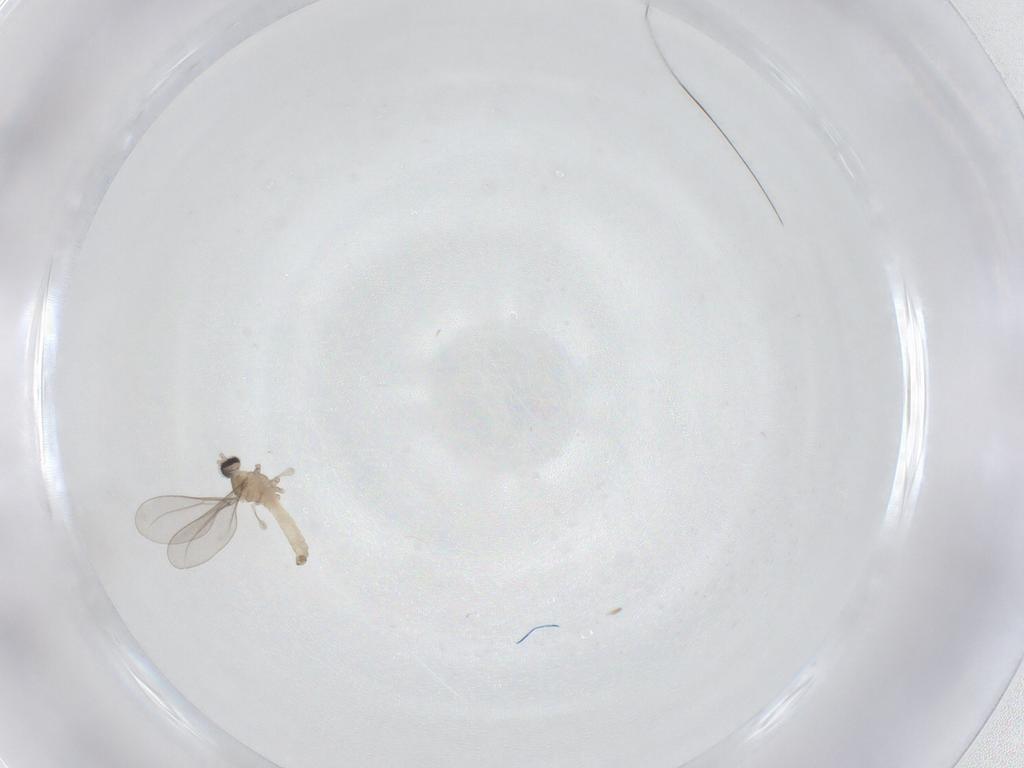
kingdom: Animalia
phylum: Arthropoda
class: Insecta
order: Diptera
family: Cecidomyiidae
